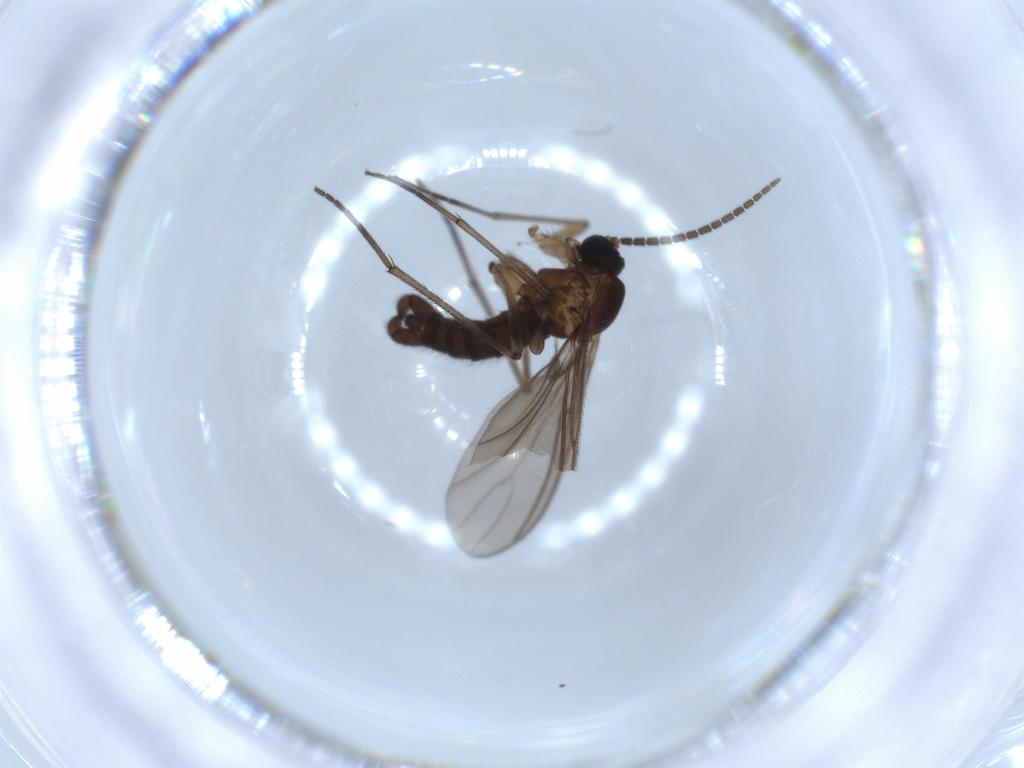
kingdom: Animalia
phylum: Arthropoda
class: Insecta
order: Diptera
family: Sciaridae
